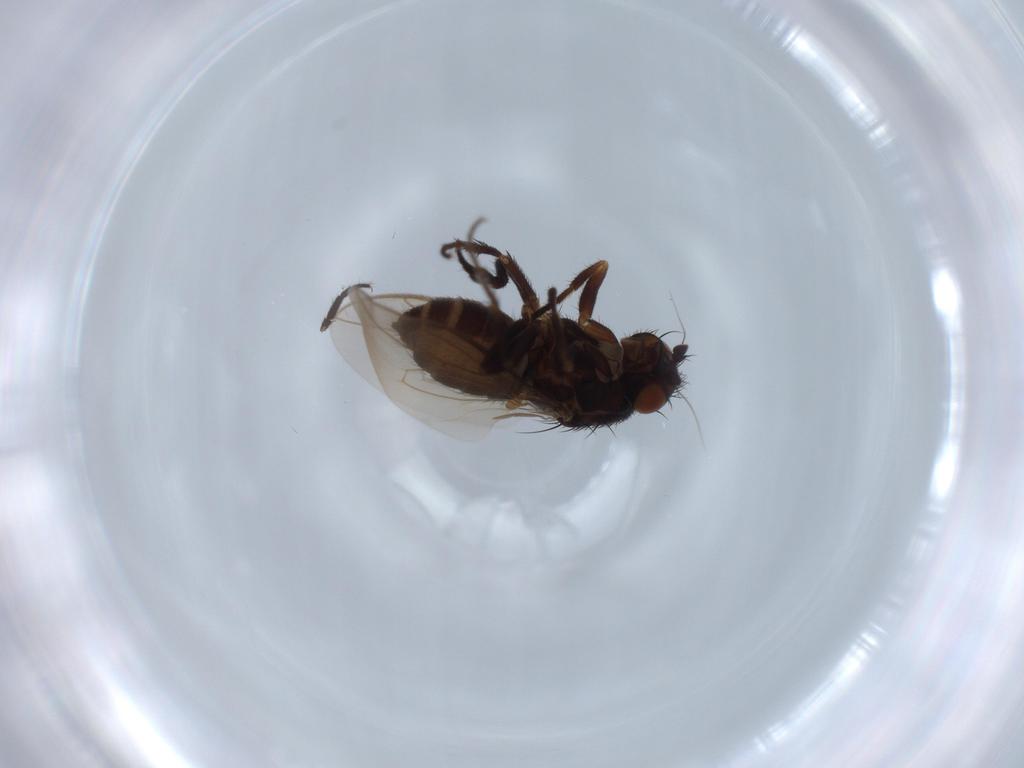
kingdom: Animalia
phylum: Arthropoda
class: Insecta
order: Diptera
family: Sphaeroceridae
